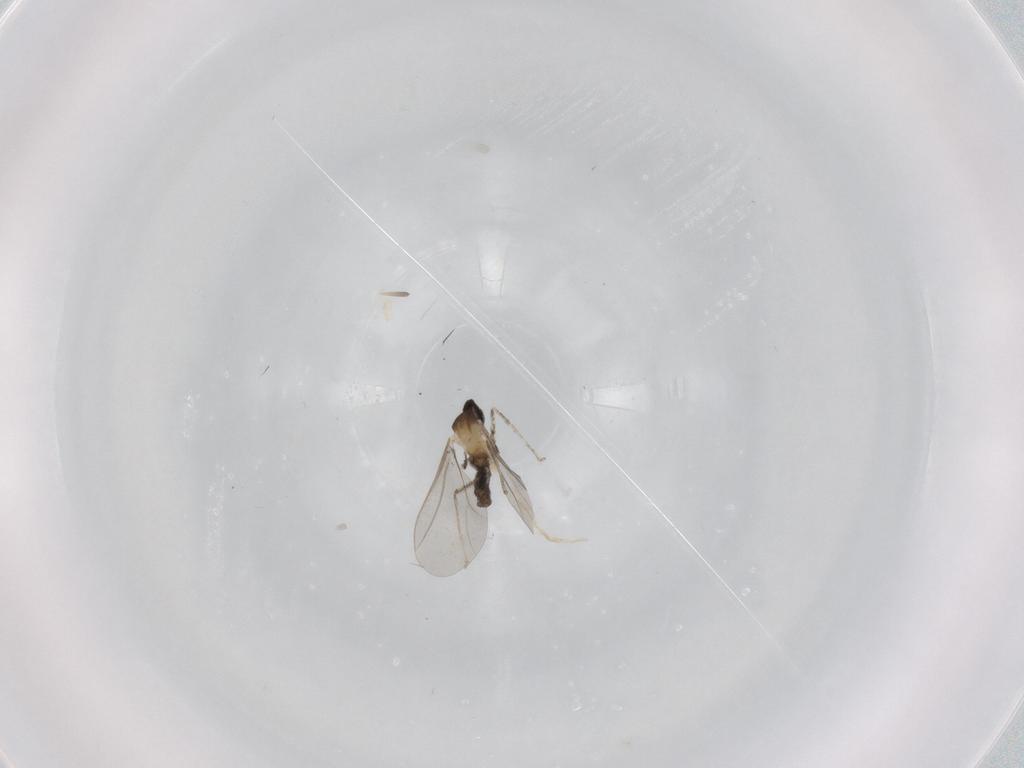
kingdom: Animalia
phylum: Arthropoda
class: Insecta
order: Diptera
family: Cecidomyiidae
